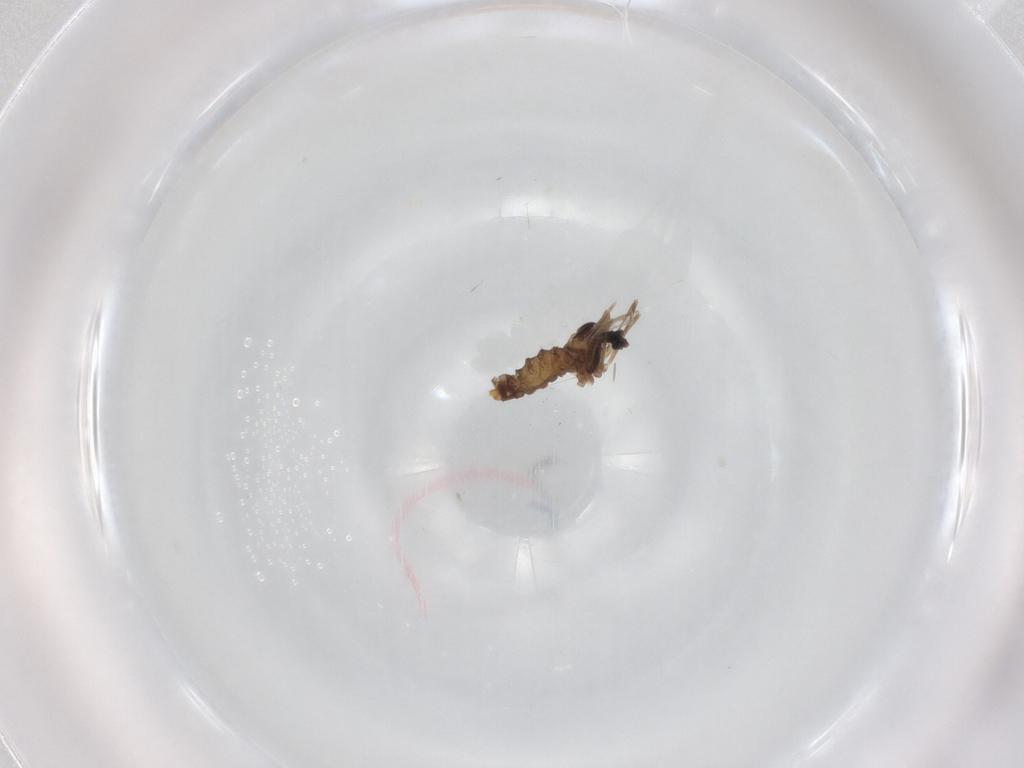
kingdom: Animalia
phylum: Arthropoda
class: Insecta
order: Diptera
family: Cecidomyiidae
